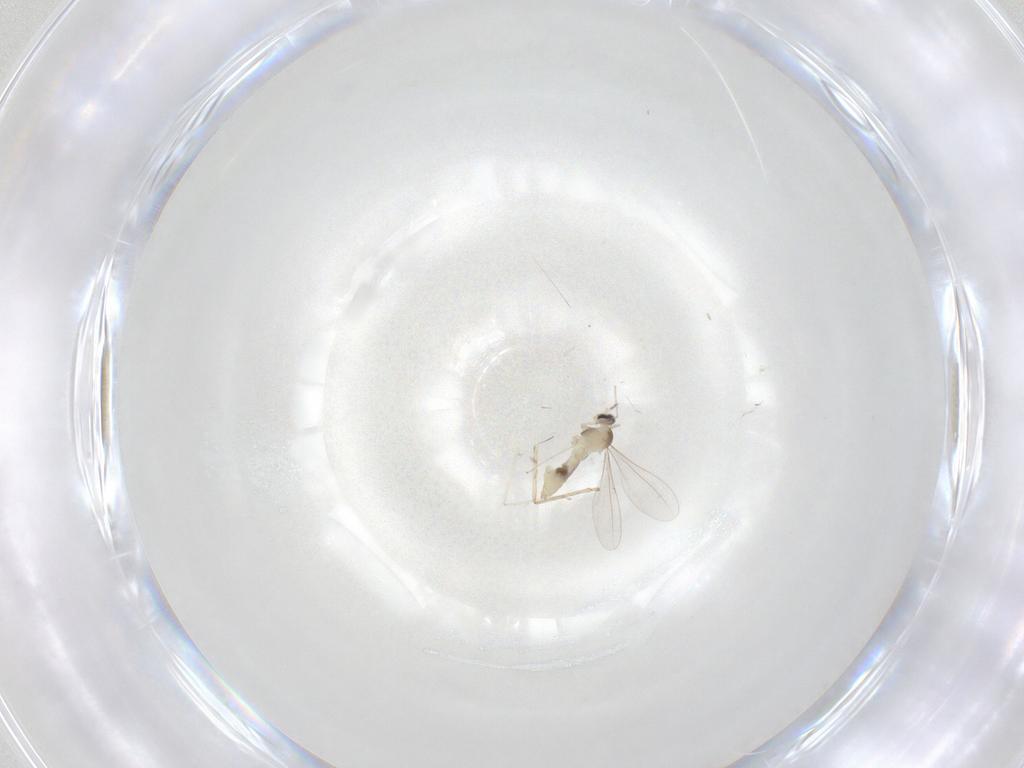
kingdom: Animalia
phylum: Arthropoda
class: Insecta
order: Diptera
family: Cecidomyiidae
